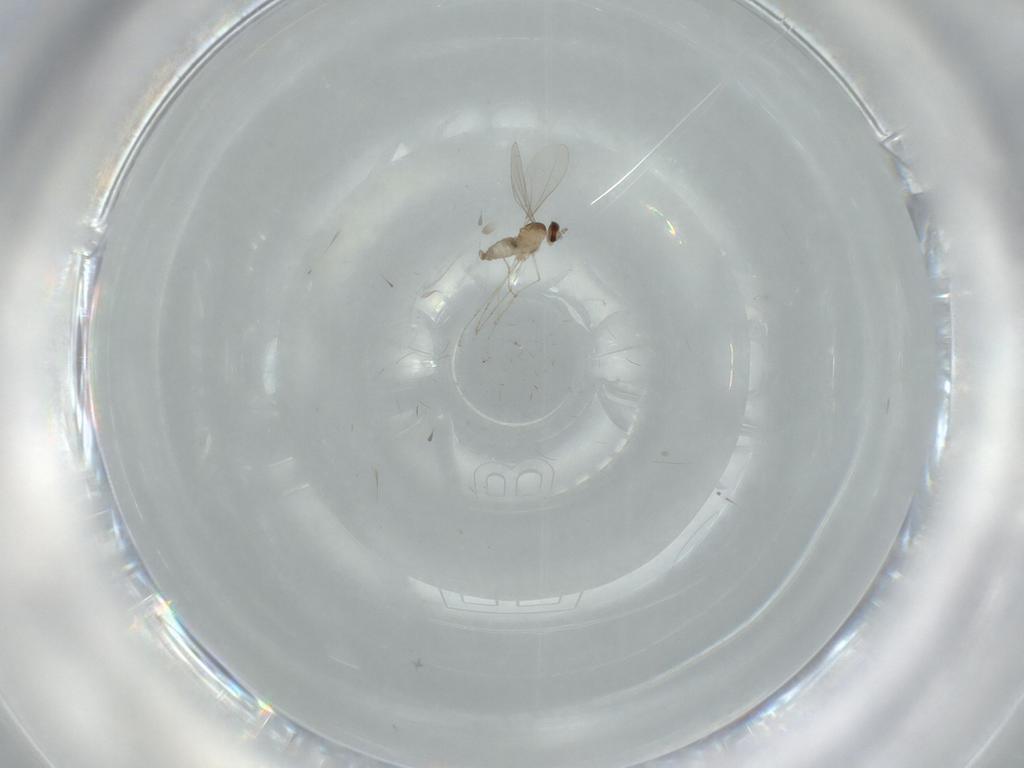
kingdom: Animalia
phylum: Arthropoda
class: Insecta
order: Diptera
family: Cecidomyiidae
